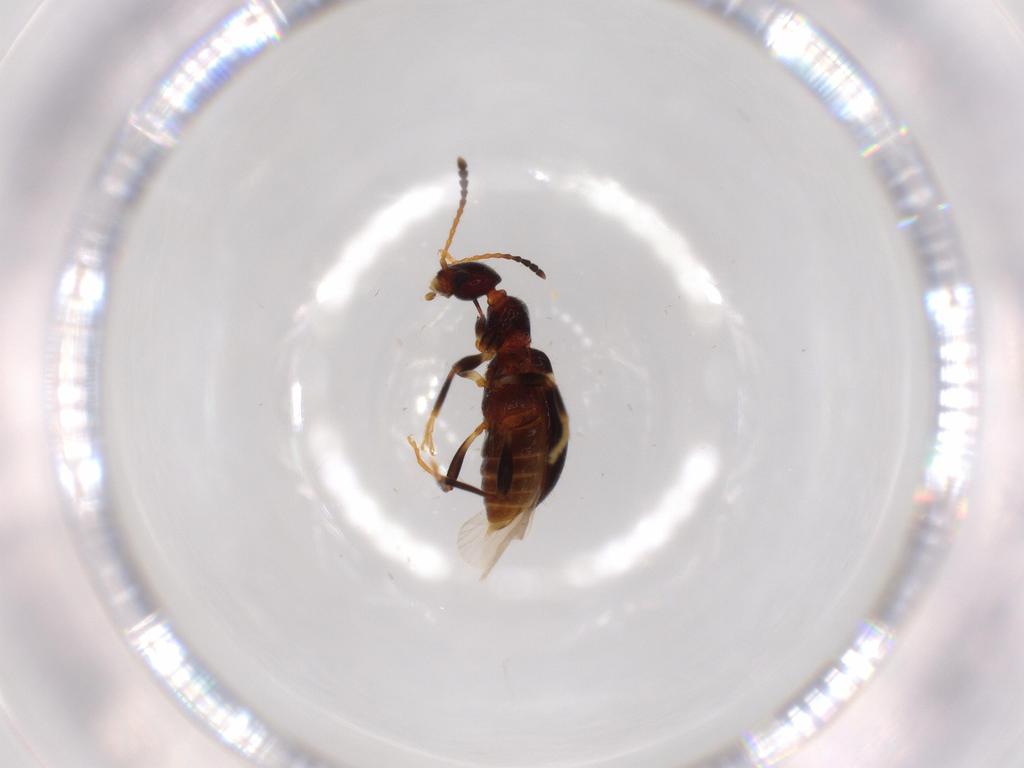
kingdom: Animalia
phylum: Arthropoda
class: Insecta
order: Coleoptera
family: Anthicidae
